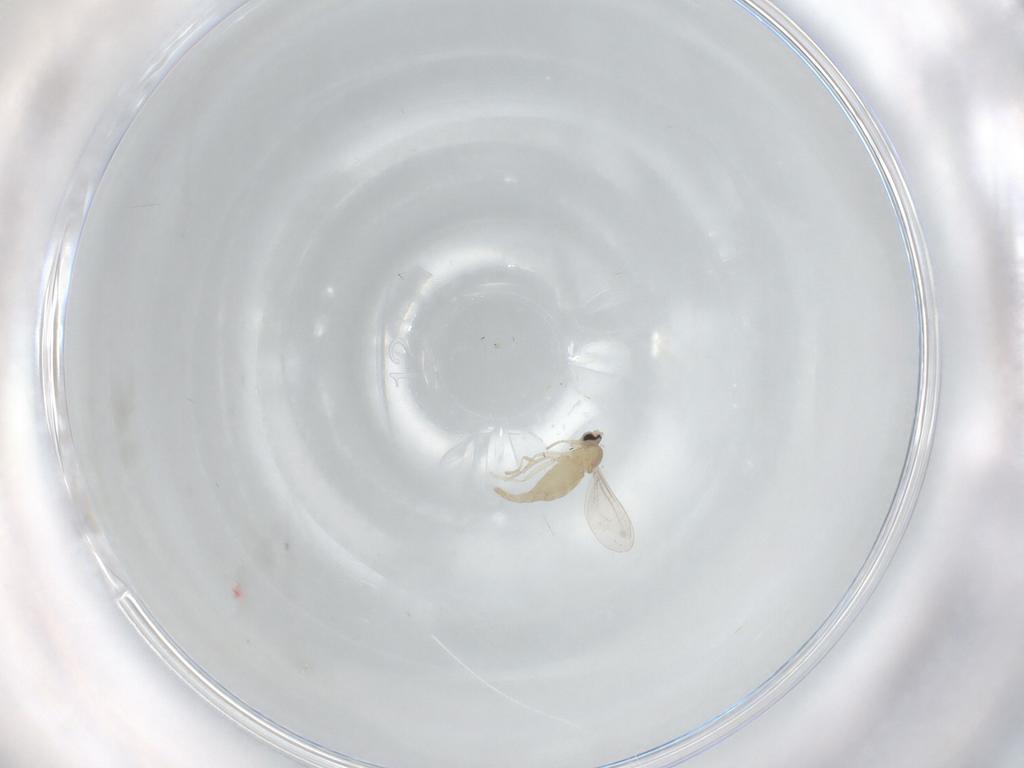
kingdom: Animalia
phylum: Arthropoda
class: Insecta
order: Diptera
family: Cecidomyiidae
